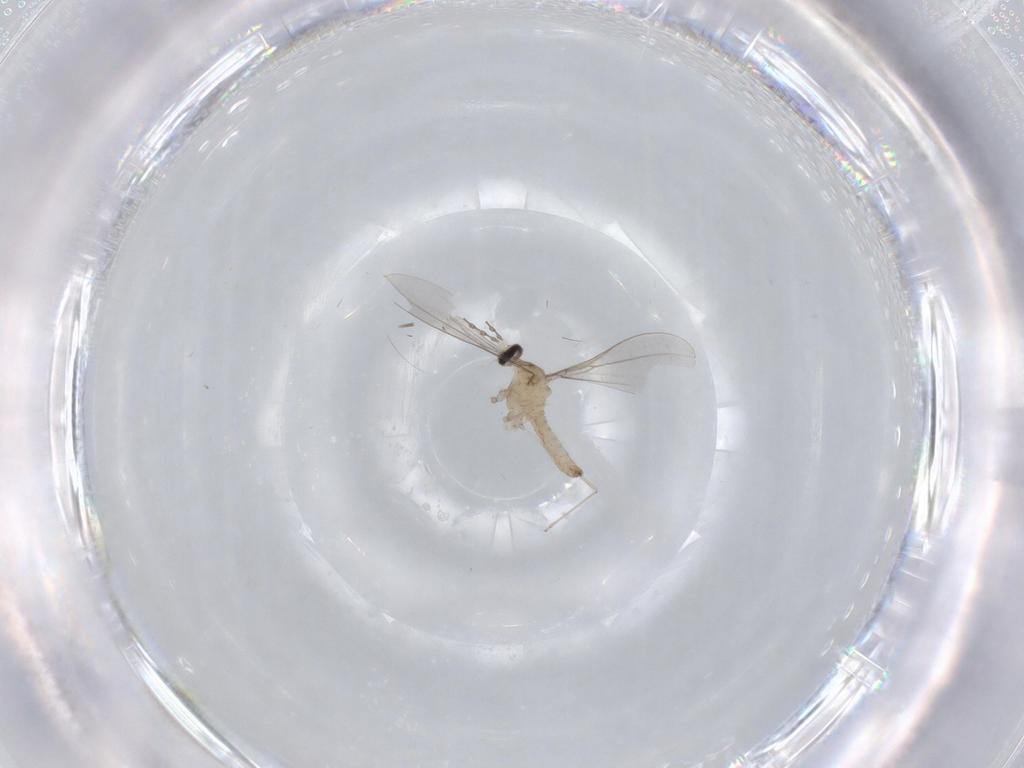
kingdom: Animalia
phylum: Arthropoda
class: Insecta
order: Diptera
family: Cecidomyiidae
